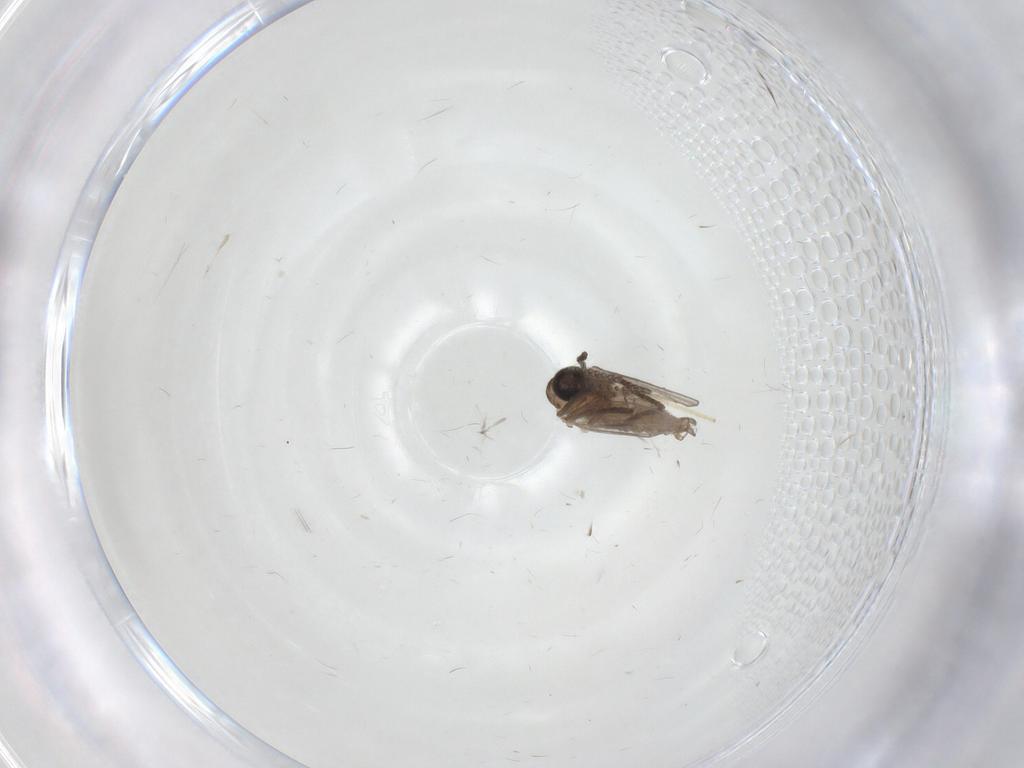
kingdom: Animalia
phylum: Arthropoda
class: Insecta
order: Diptera
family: Psychodidae
